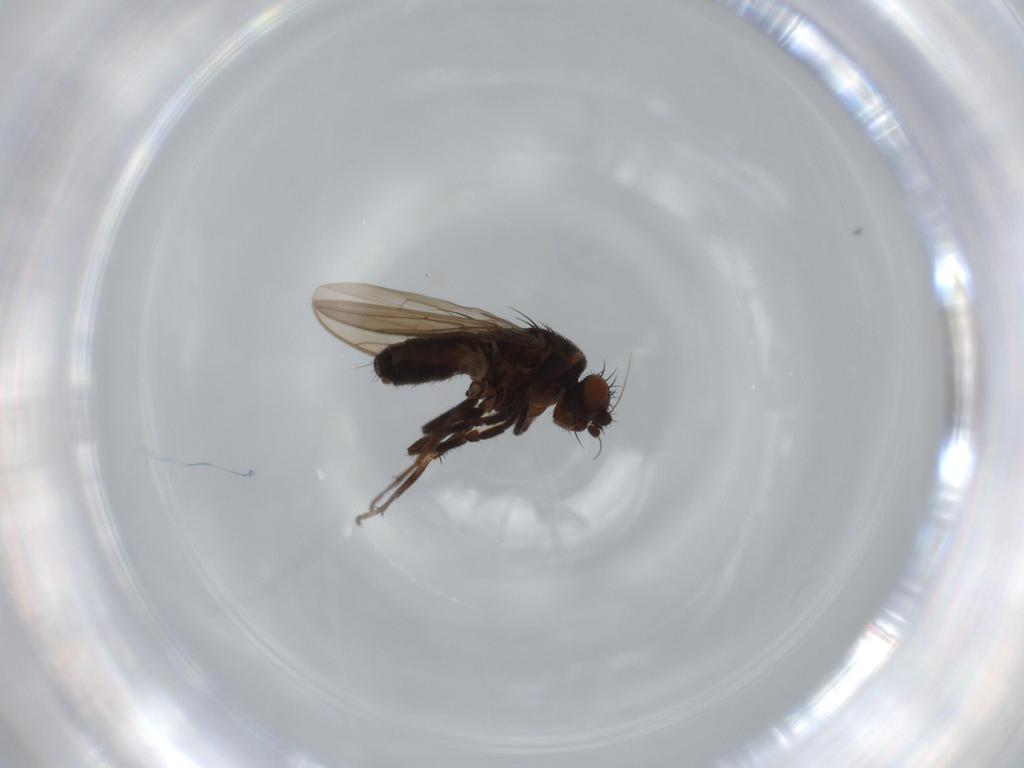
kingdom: Animalia
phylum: Arthropoda
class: Insecta
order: Diptera
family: Sphaeroceridae
